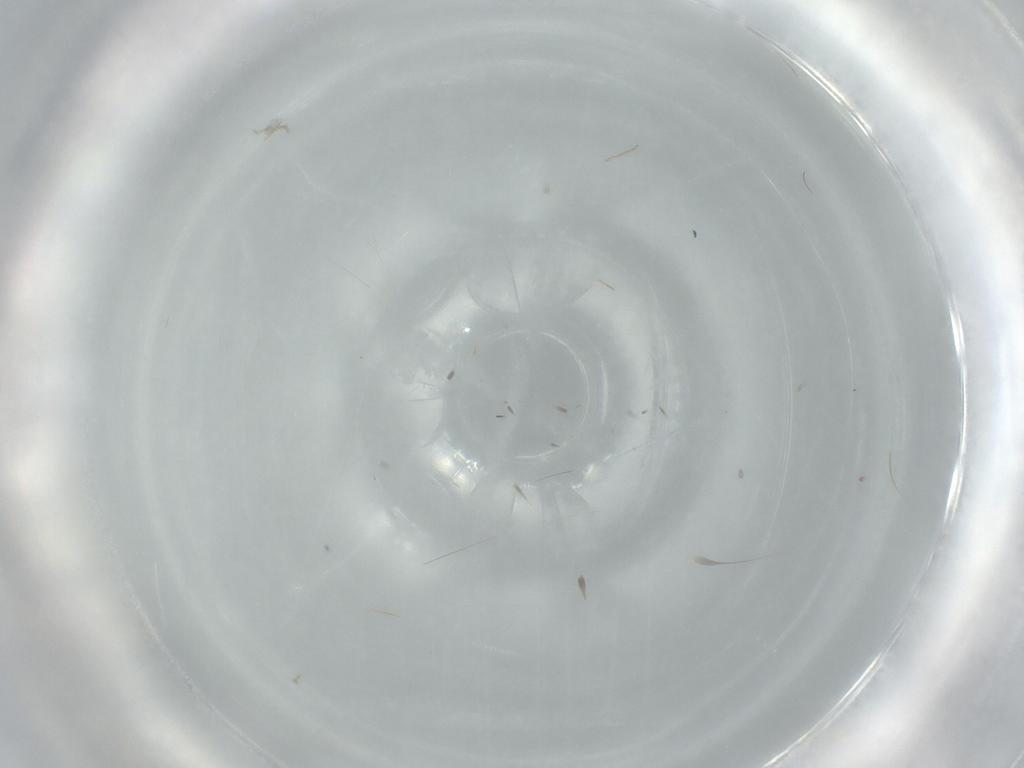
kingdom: Animalia
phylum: Arthropoda
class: Insecta
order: Diptera
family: Cecidomyiidae
